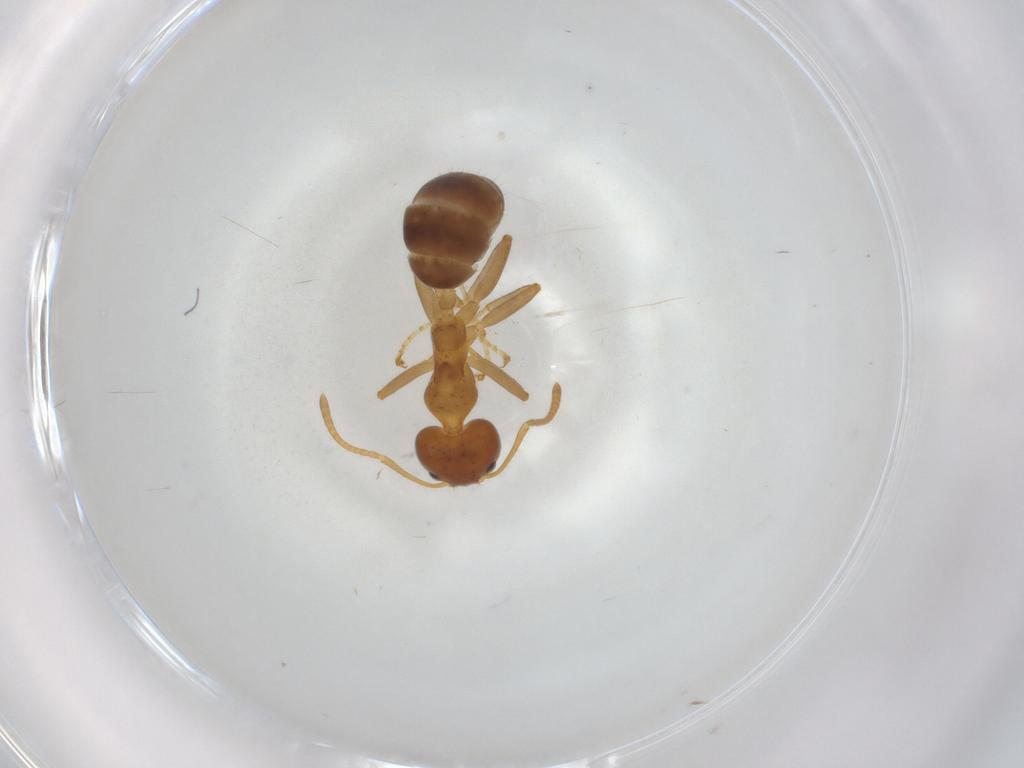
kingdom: Animalia
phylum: Arthropoda
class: Insecta
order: Hymenoptera
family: Formicidae
